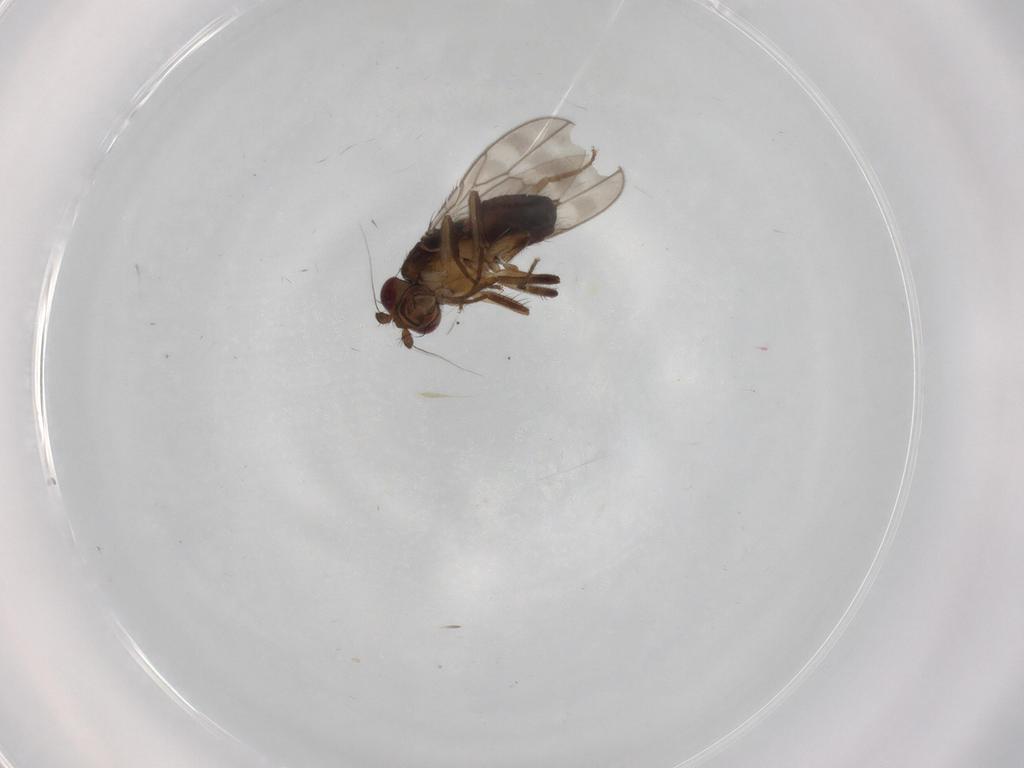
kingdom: Animalia
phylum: Arthropoda
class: Insecta
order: Diptera
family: Sphaeroceridae
